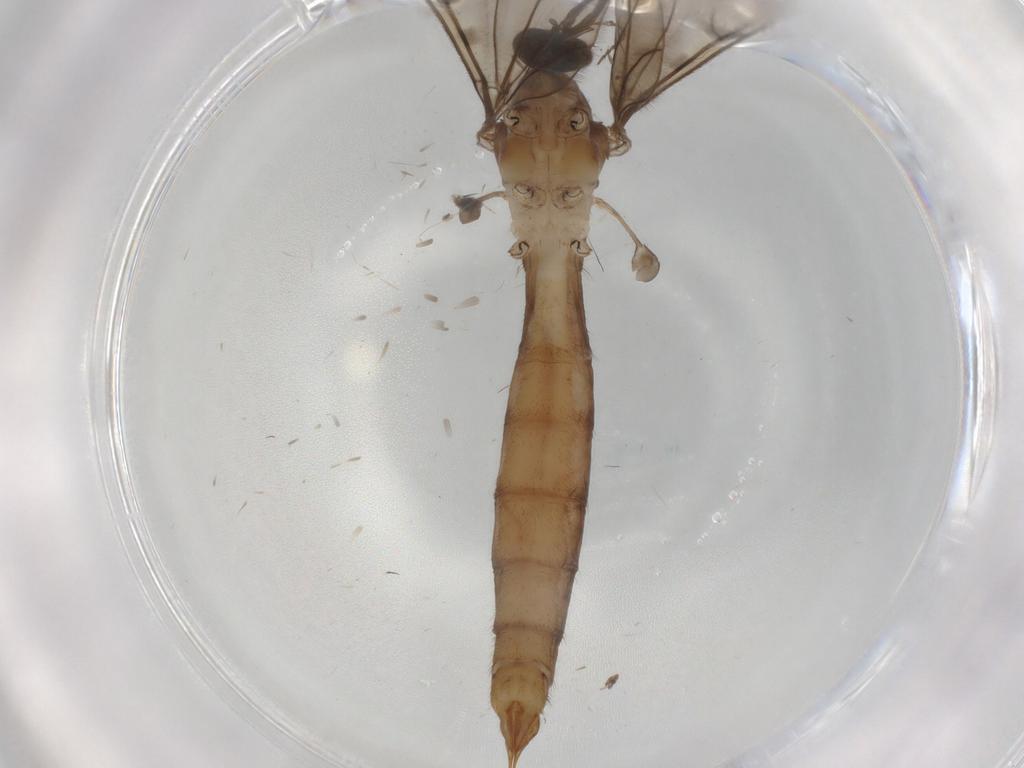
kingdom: Animalia
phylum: Arthropoda
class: Insecta
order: Diptera
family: Limoniidae
